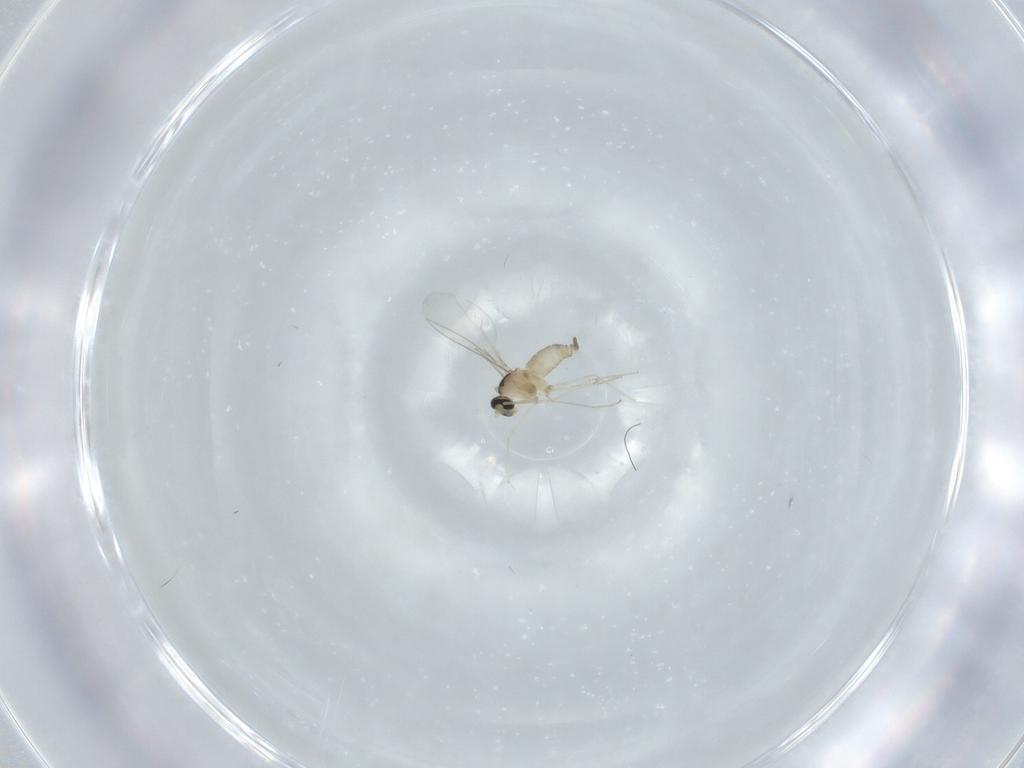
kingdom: Animalia
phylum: Arthropoda
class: Insecta
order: Diptera
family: Cecidomyiidae
